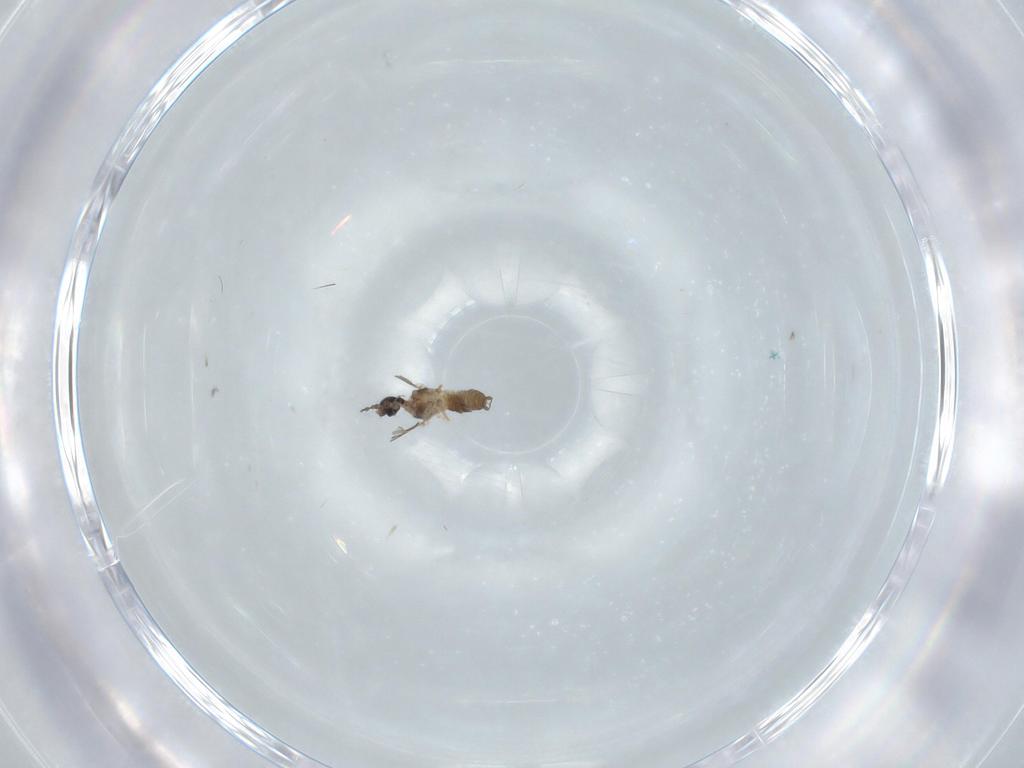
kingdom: Animalia
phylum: Arthropoda
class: Insecta
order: Diptera
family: Cecidomyiidae
